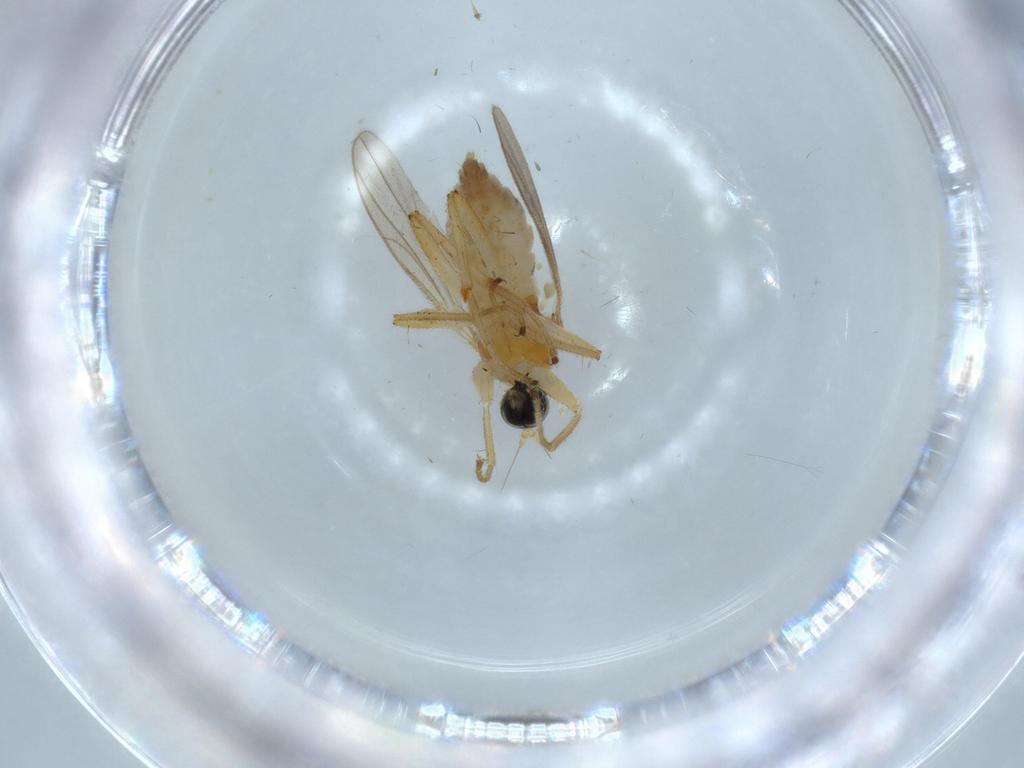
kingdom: Animalia
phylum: Arthropoda
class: Insecta
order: Diptera
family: Hybotidae
